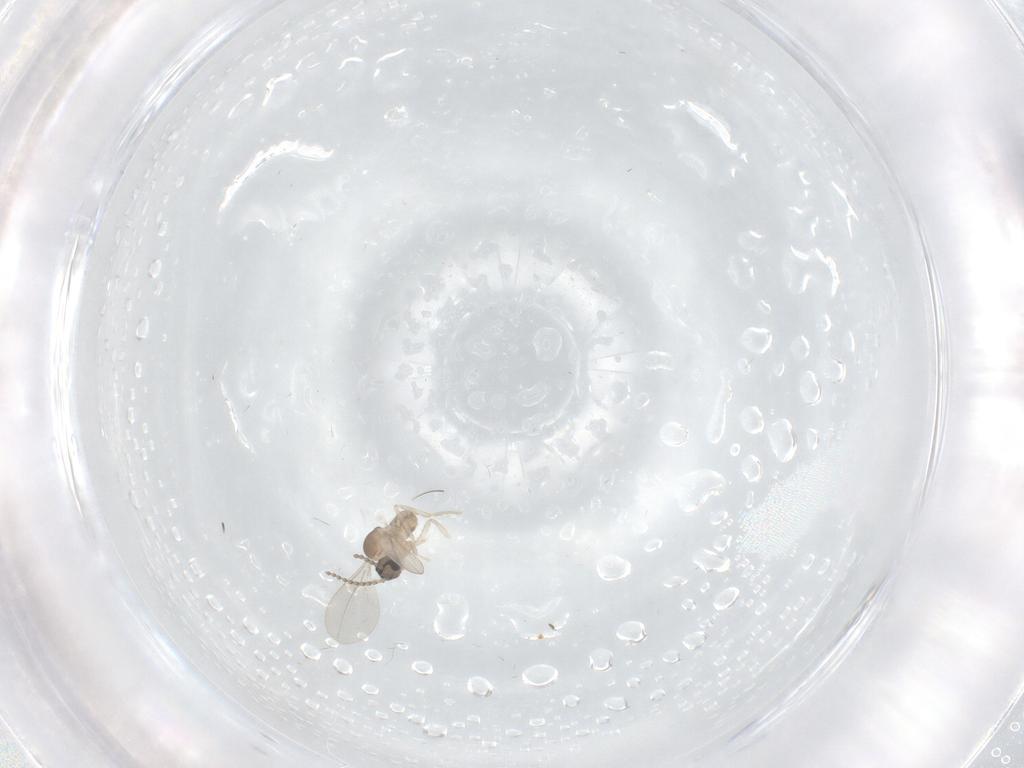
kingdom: Animalia
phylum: Arthropoda
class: Insecta
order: Diptera
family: Cecidomyiidae
